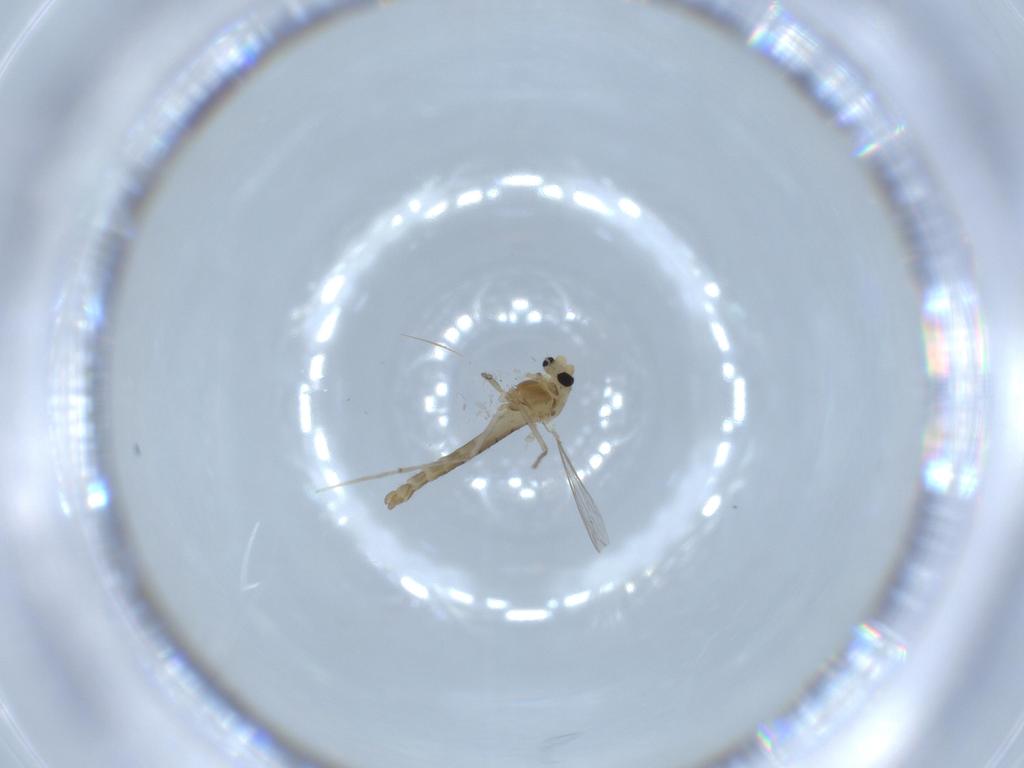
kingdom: Animalia
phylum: Arthropoda
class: Insecta
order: Diptera
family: Chironomidae
